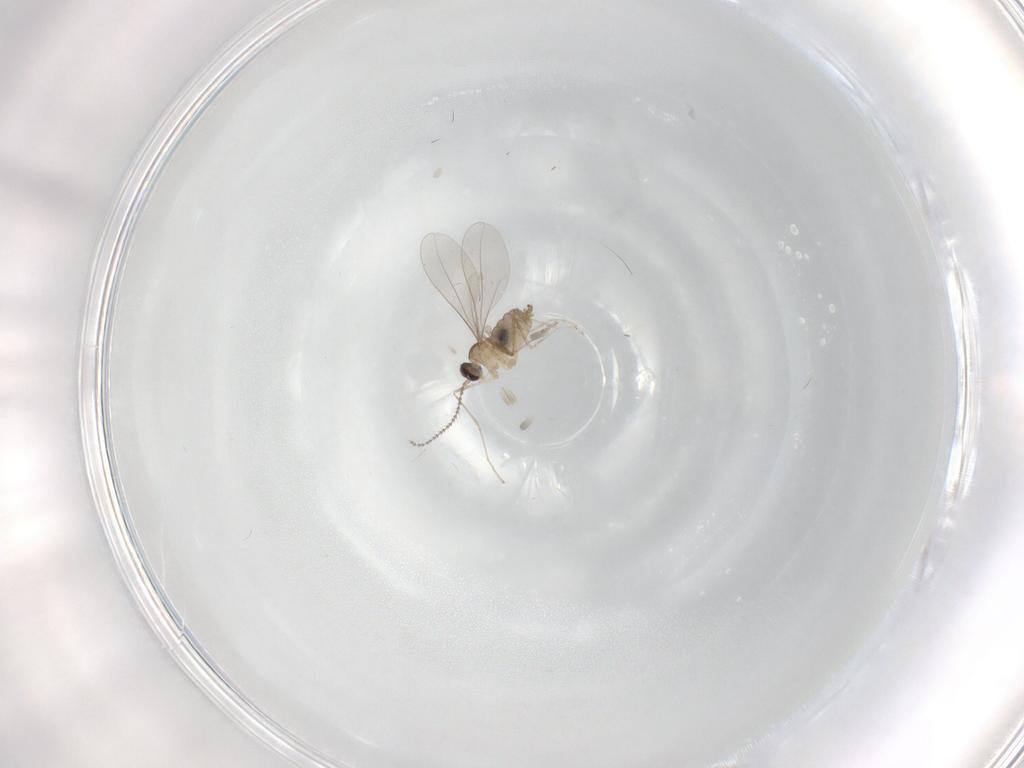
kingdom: Animalia
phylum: Arthropoda
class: Insecta
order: Diptera
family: Cecidomyiidae
